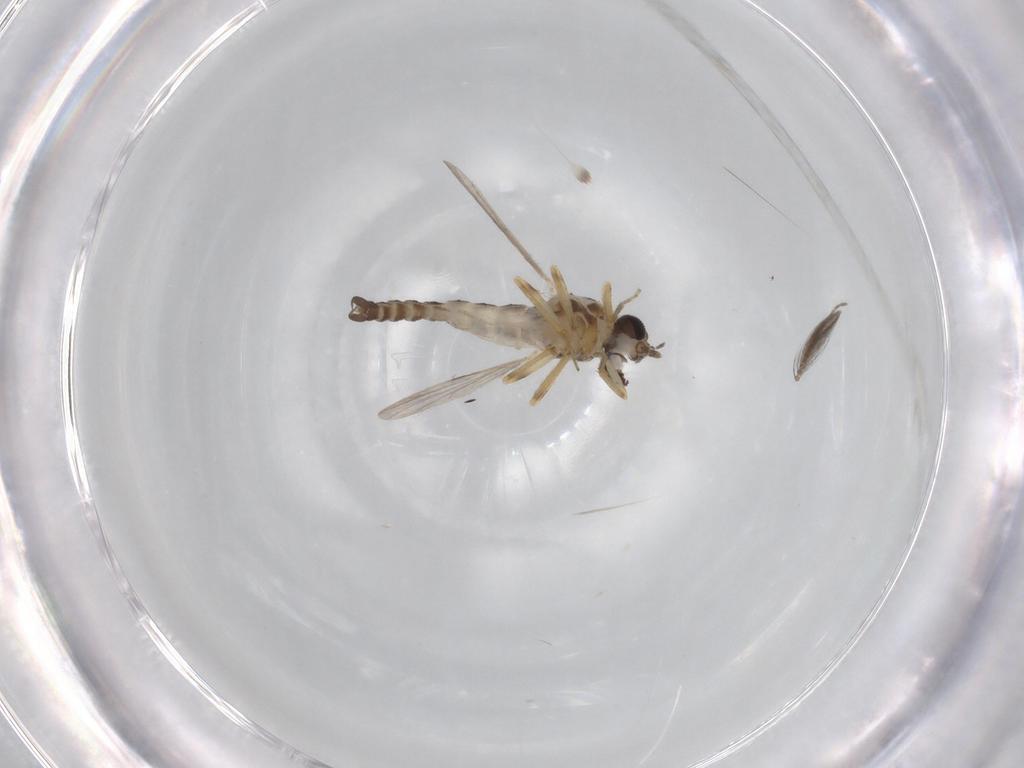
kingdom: Animalia
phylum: Arthropoda
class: Insecta
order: Diptera
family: Ceratopogonidae
